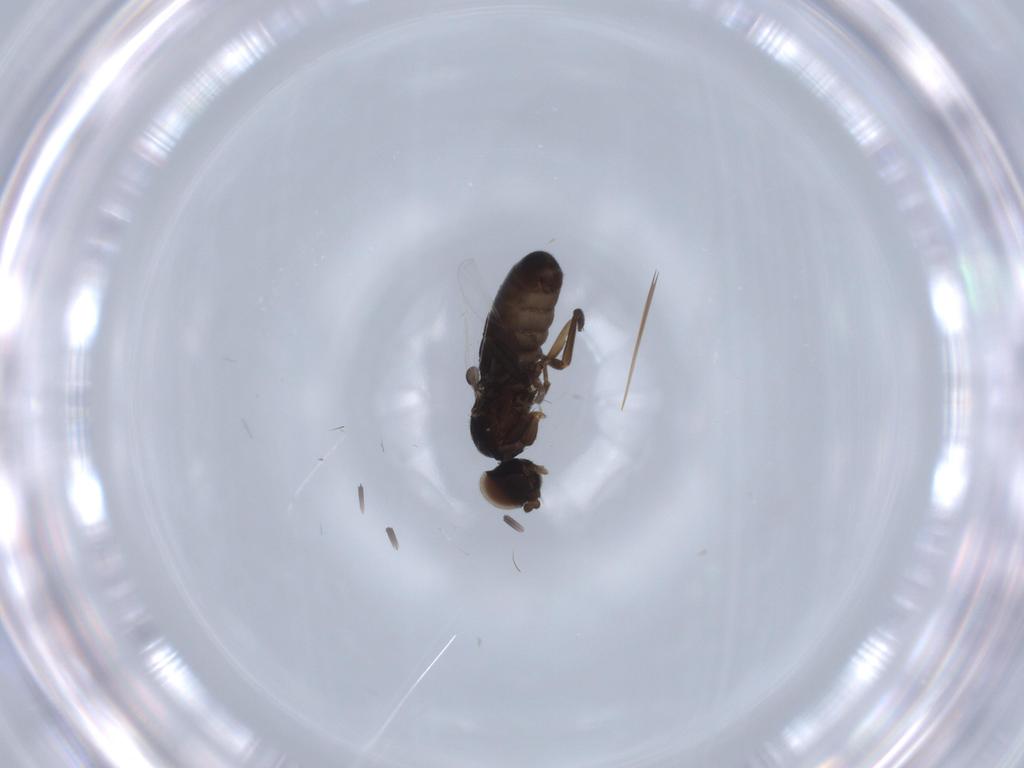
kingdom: Animalia
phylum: Arthropoda
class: Insecta
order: Diptera
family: Phoridae
